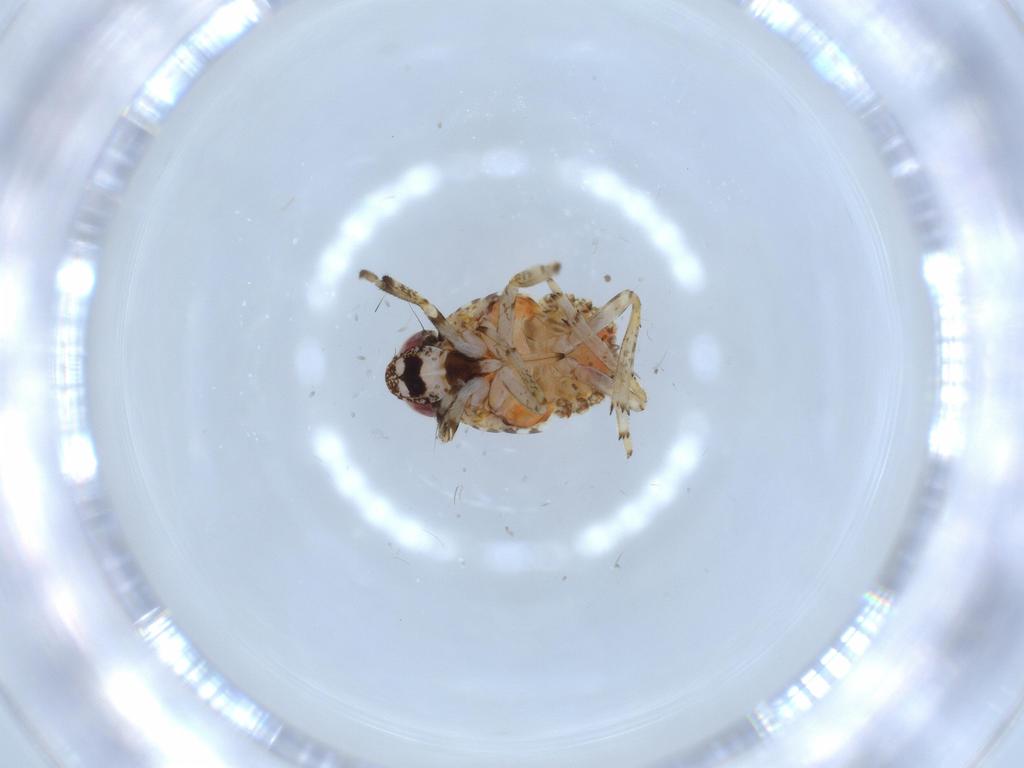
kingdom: Animalia
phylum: Arthropoda
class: Insecta
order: Hemiptera
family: Issidae
